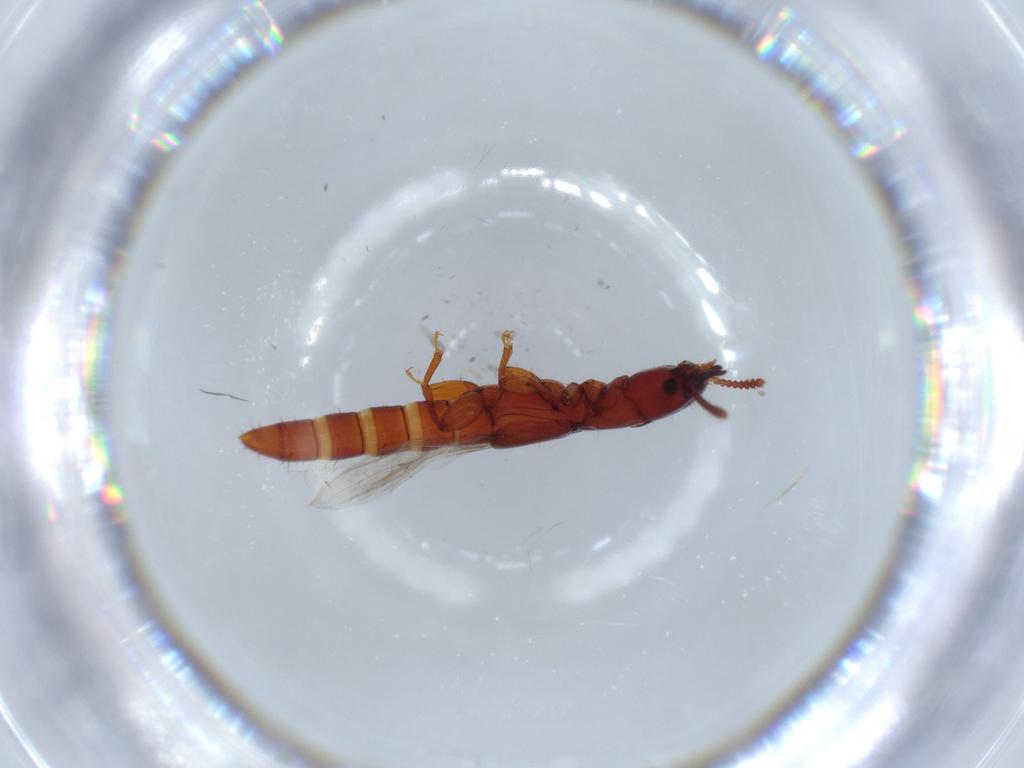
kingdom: Animalia
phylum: Arthropoda
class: Insecta
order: Coleoptera
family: Staphylinidae
